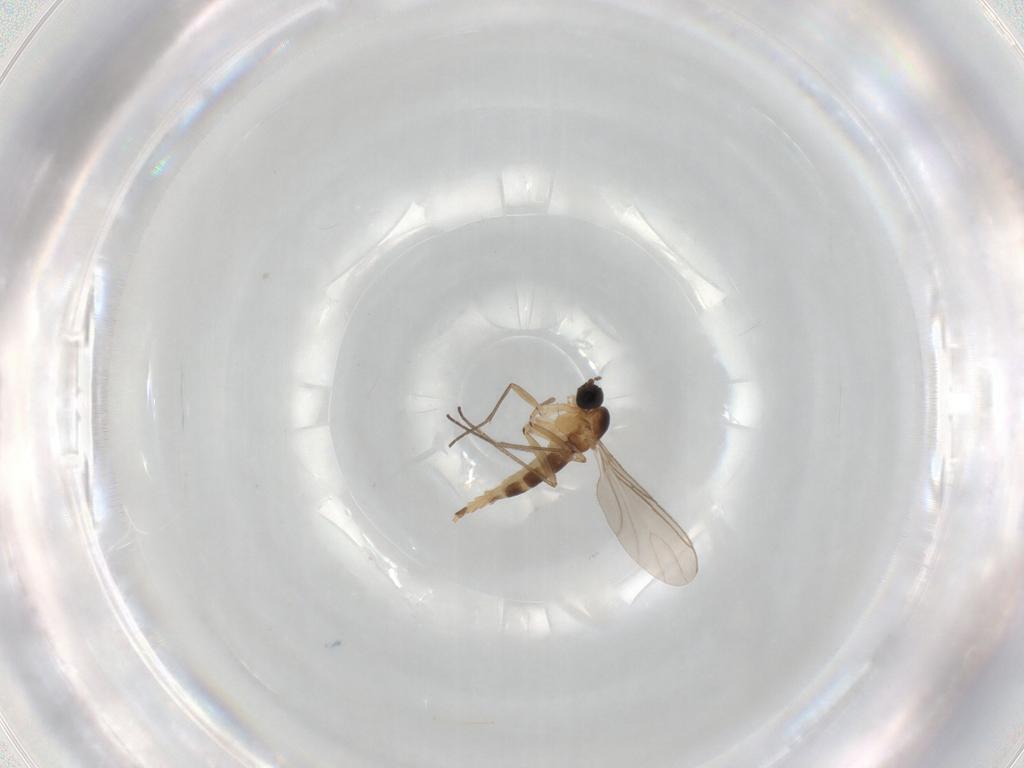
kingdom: Animalia
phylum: Arthropoda
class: Insecta
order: Diptera
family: Sciaridae
